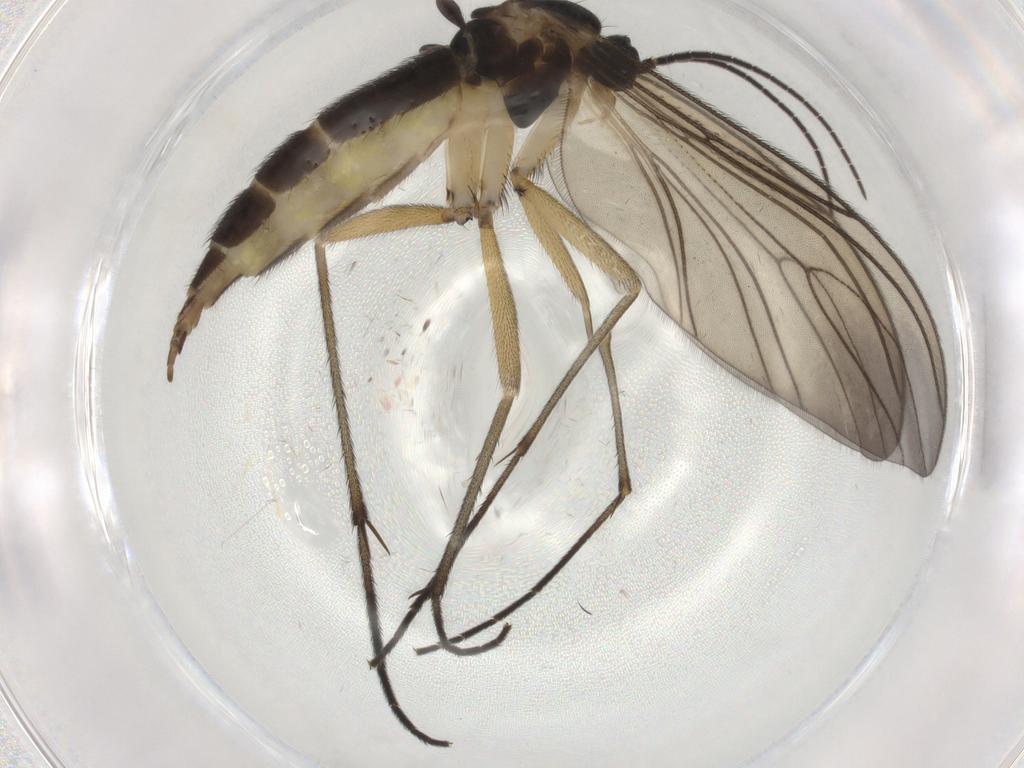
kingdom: Animalia
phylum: Arthropoda
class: Insecta
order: Diptera
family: Sciaridae
